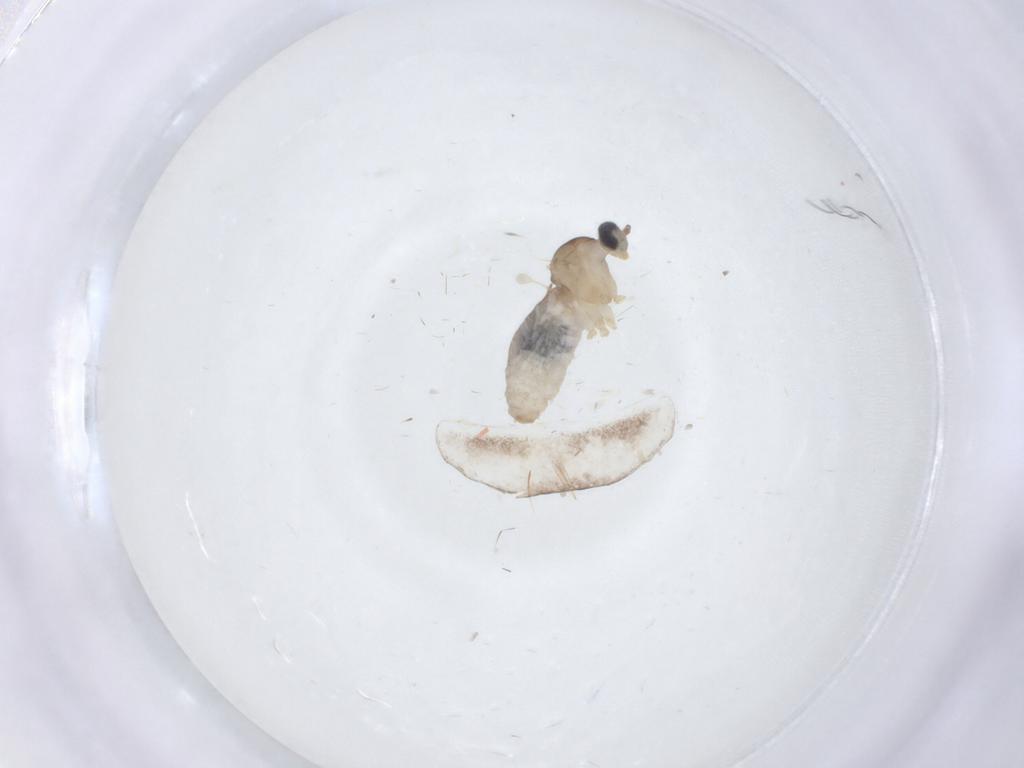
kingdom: Animalia
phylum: Arthropoda
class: Insecta
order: Diptera
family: Cecidomyiidae
